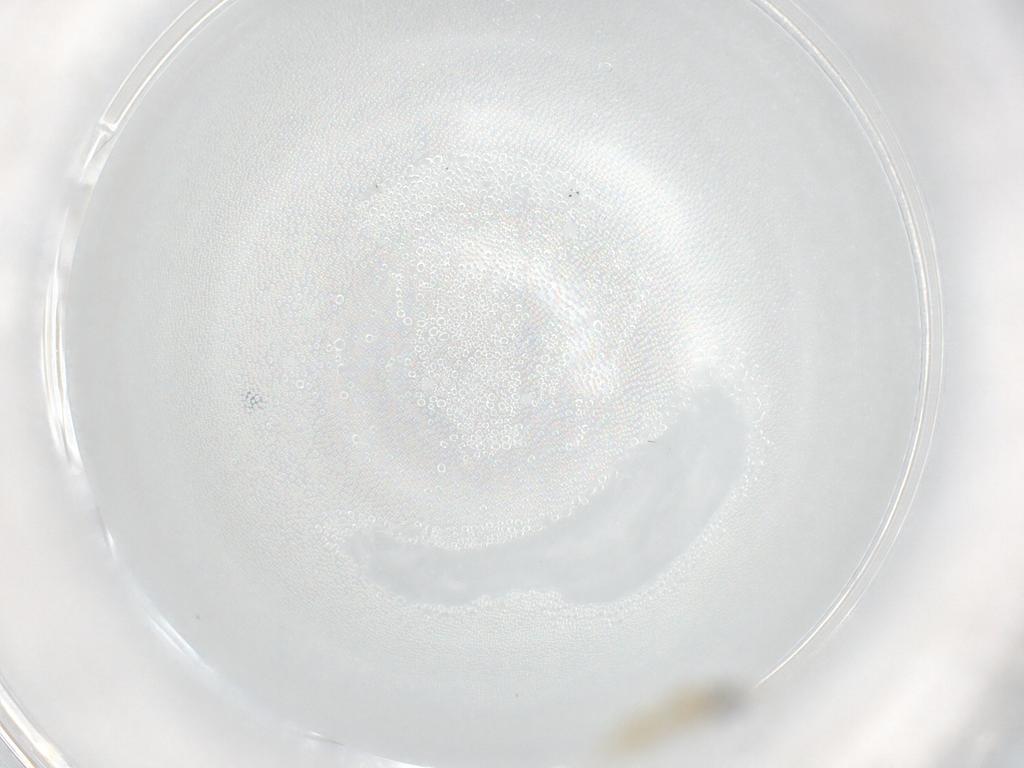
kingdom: Animalia
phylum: Arthropoda
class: Insecta
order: Diptera
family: Cecidomyiidae
